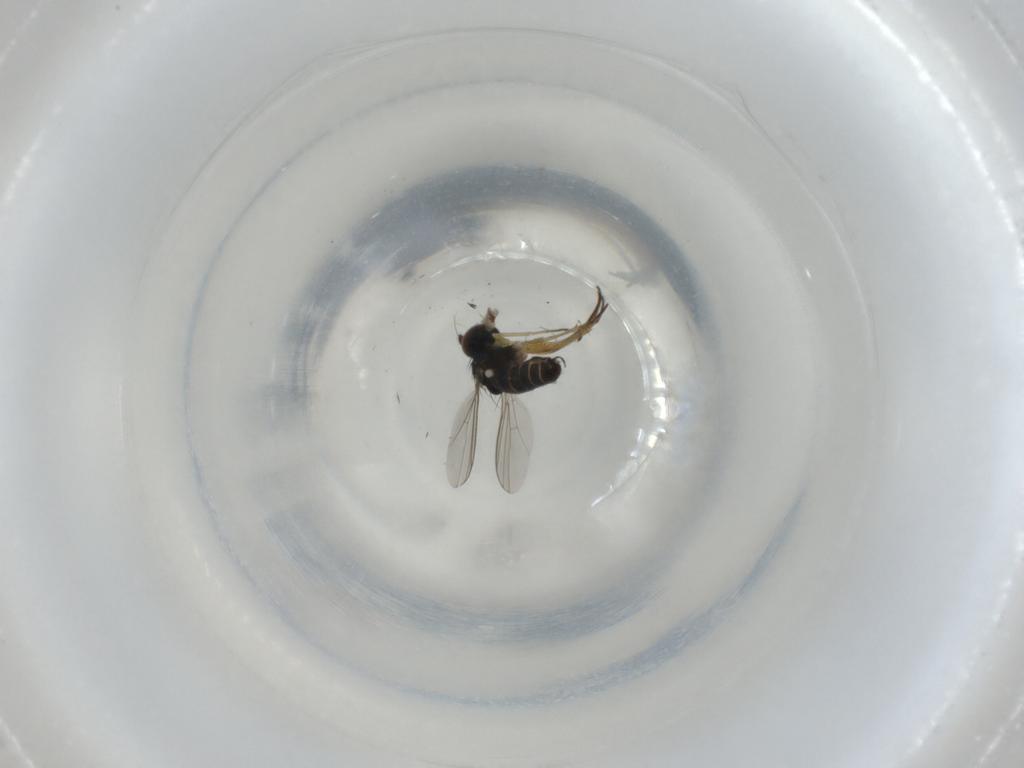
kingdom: Animalia
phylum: Arthropoda
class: Insecta
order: Diptera
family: Dolichopodidae
